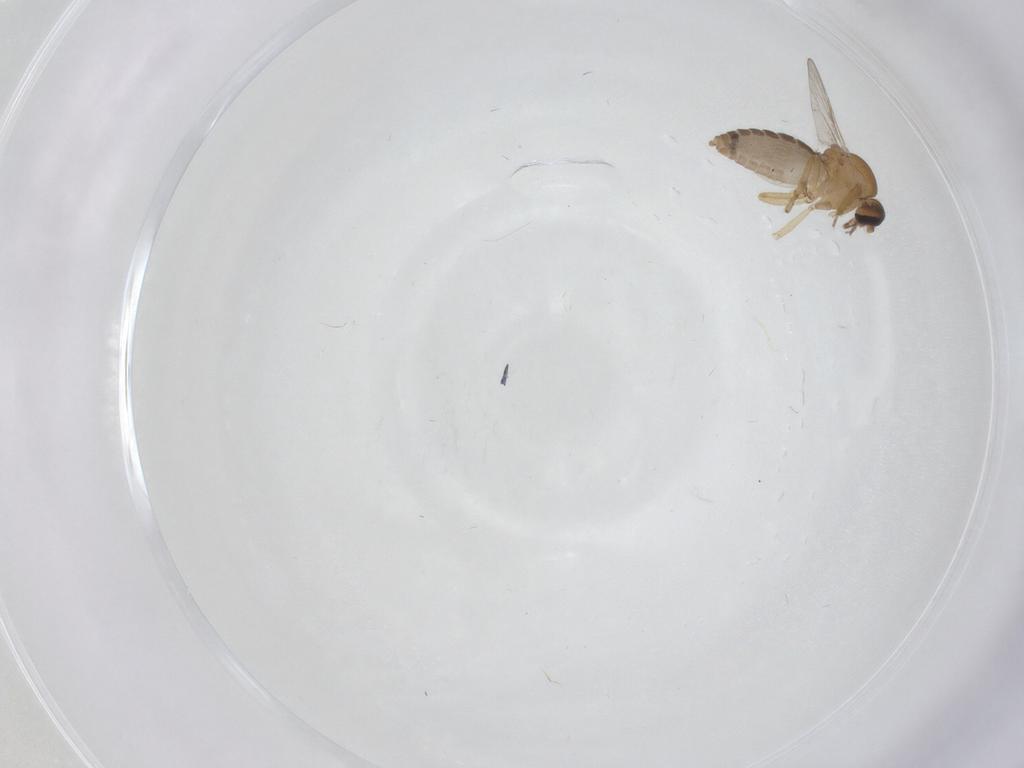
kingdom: Animalia
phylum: Arthropoda
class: Insecta
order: Diptera
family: Ceratopogonidae
